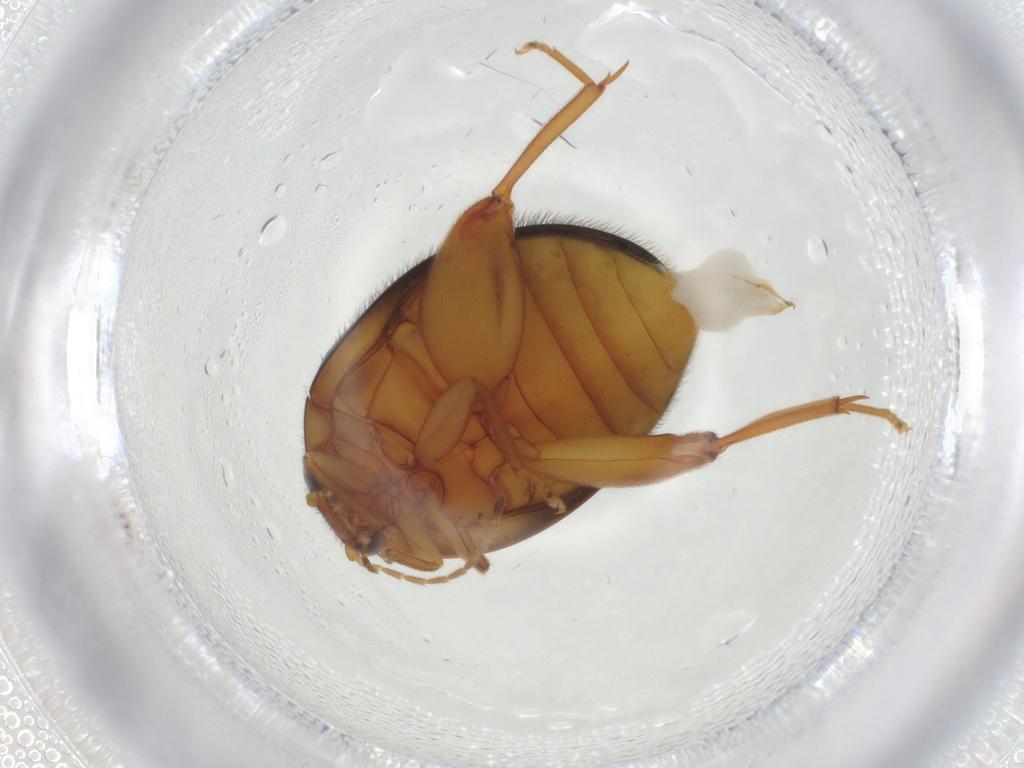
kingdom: Animalia
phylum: Arthropoda
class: Insecta
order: Coleoptera
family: Scirtidae
